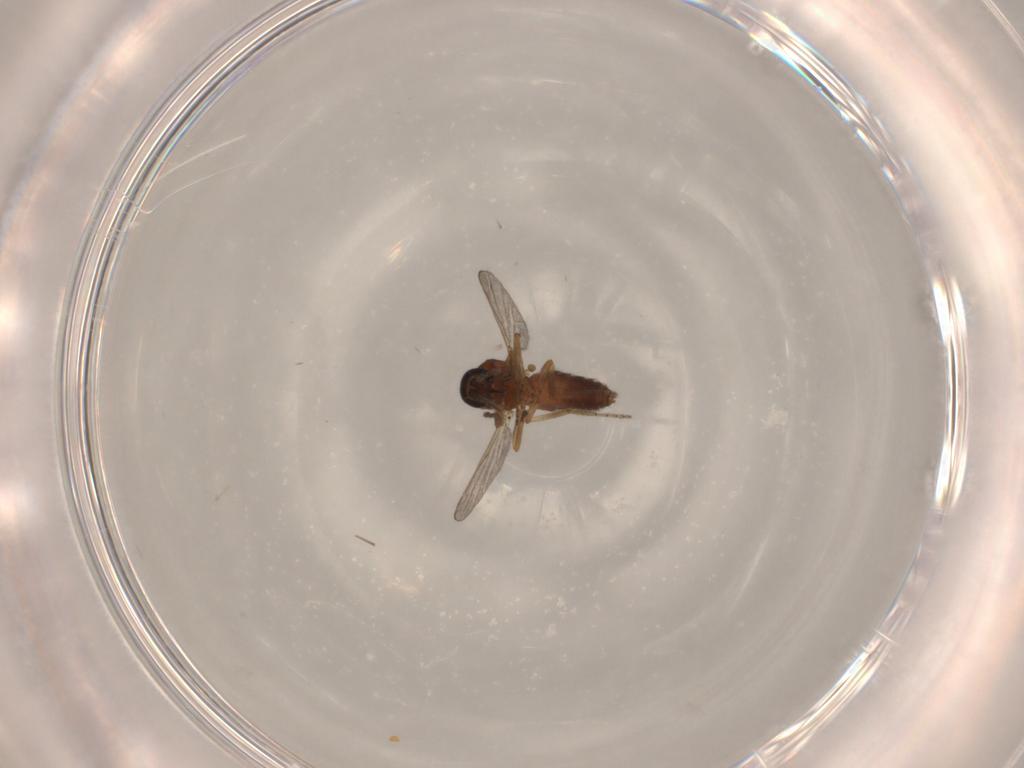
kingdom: Animalia
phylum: Arthropoda
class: Insecta
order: Diptera
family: Ceratopogonidae
